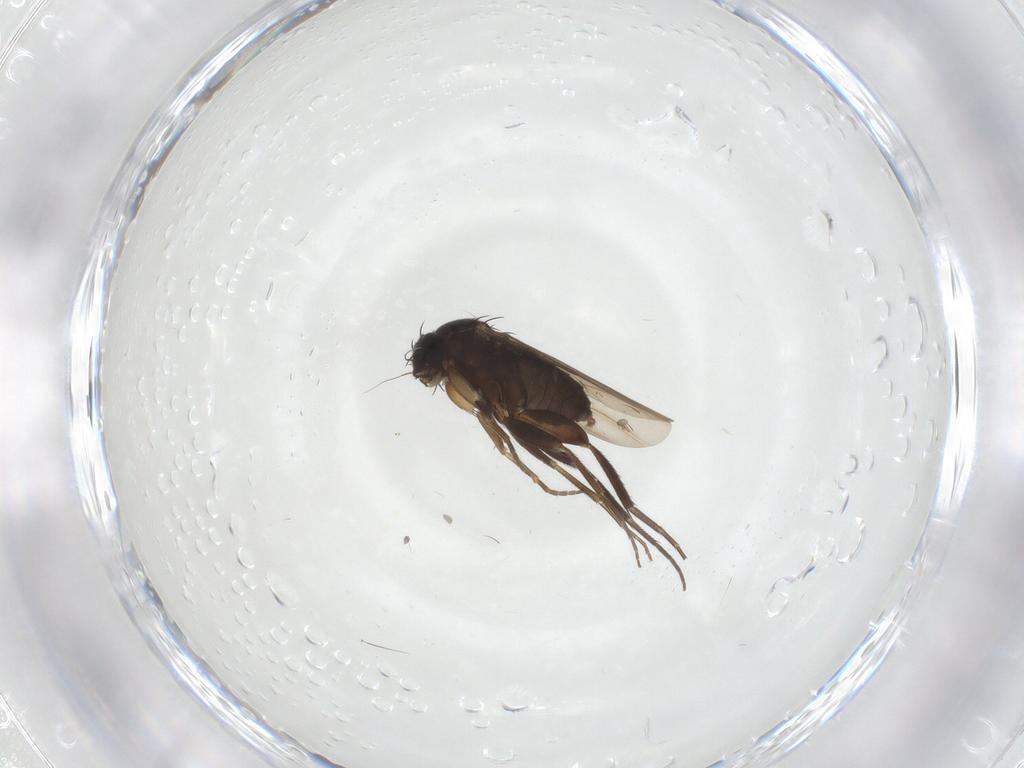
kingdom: Animalia
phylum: Arthropoda
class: Insecta
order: Diptera
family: Phoridae
